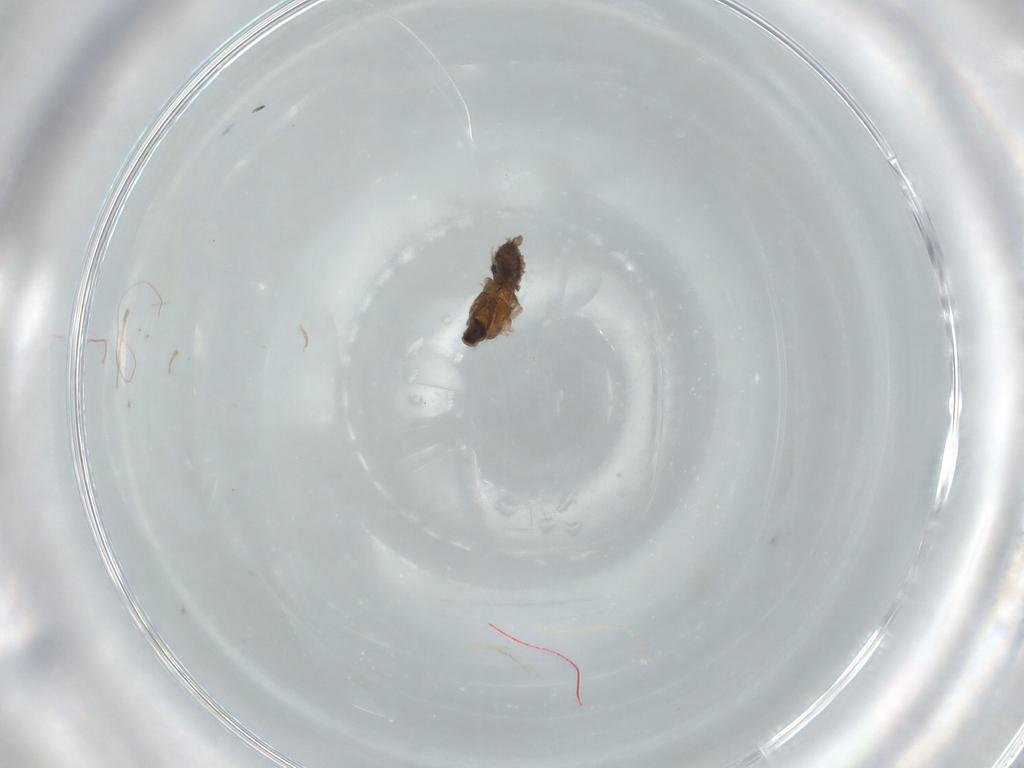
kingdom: Animalia
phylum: Arthropoda
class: Insecta
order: Diptera
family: Cecidomyiidae
